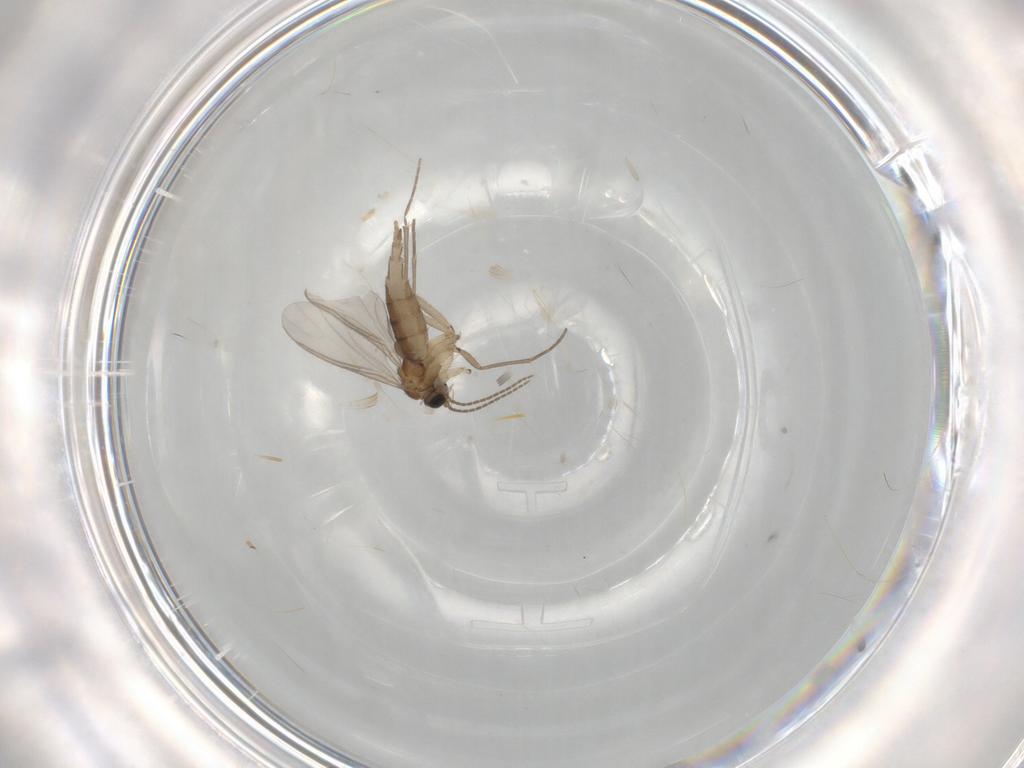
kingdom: Animalia
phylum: Arthropoda
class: Insecta
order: Diptera
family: Sciaridae
